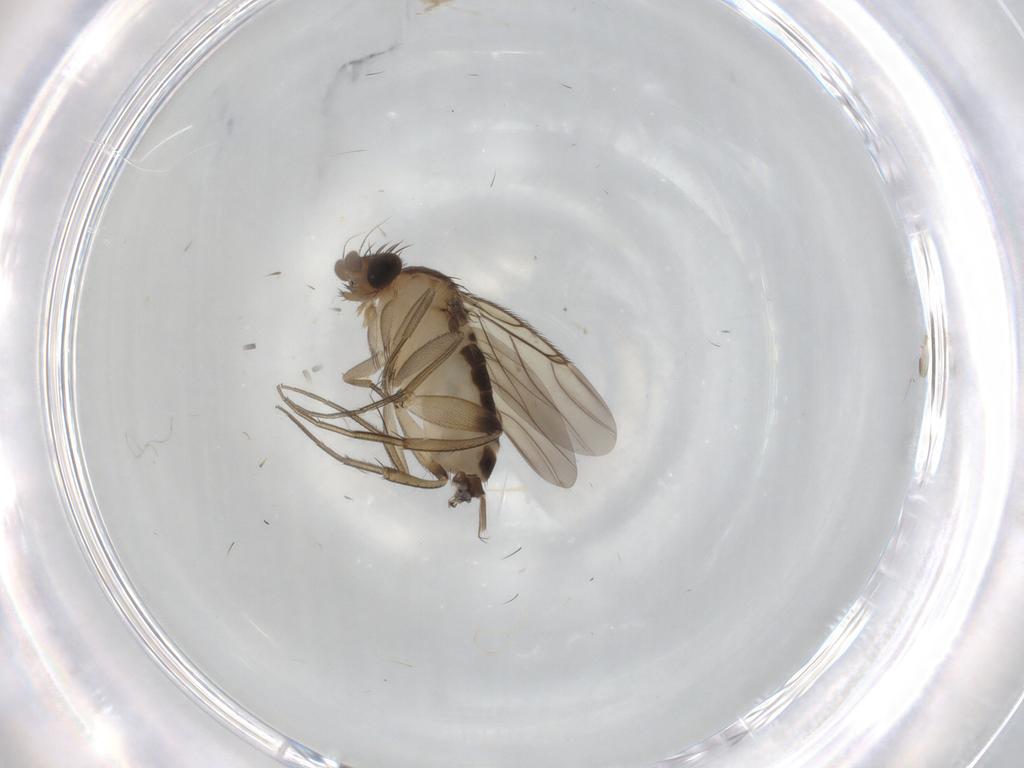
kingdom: Animalia
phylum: Arthropoda
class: Insecta
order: Diptera
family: Phoridae
